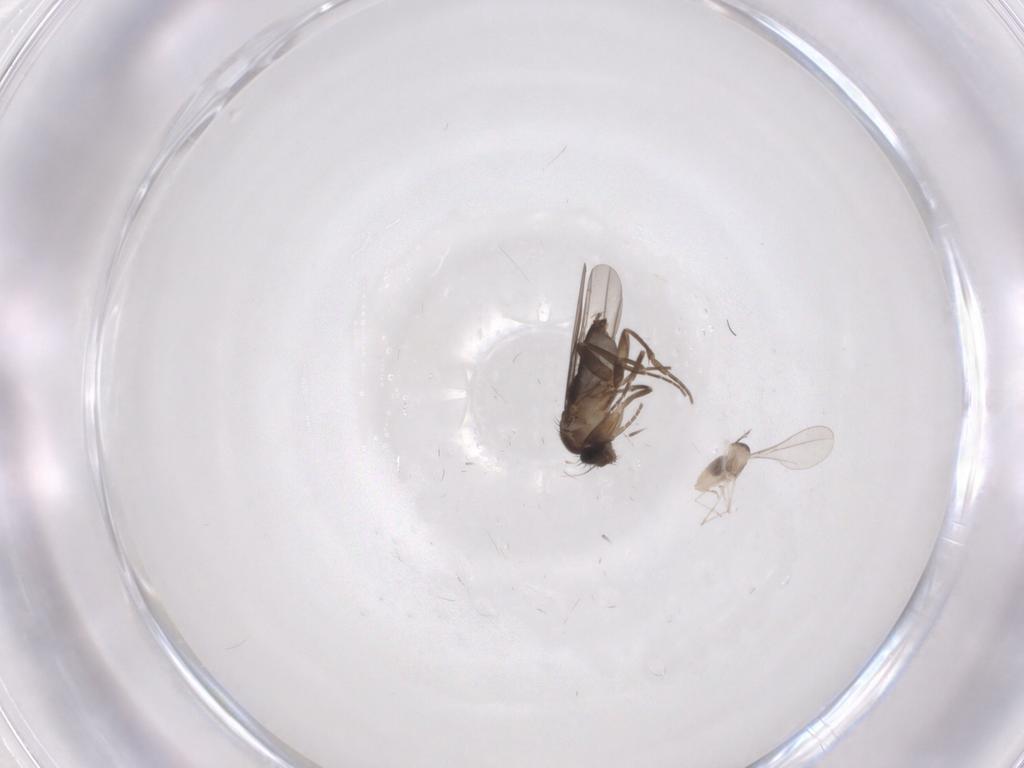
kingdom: Animalia
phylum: Arthropoda
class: Insecta
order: Diptera
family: Cecidomyiidae
